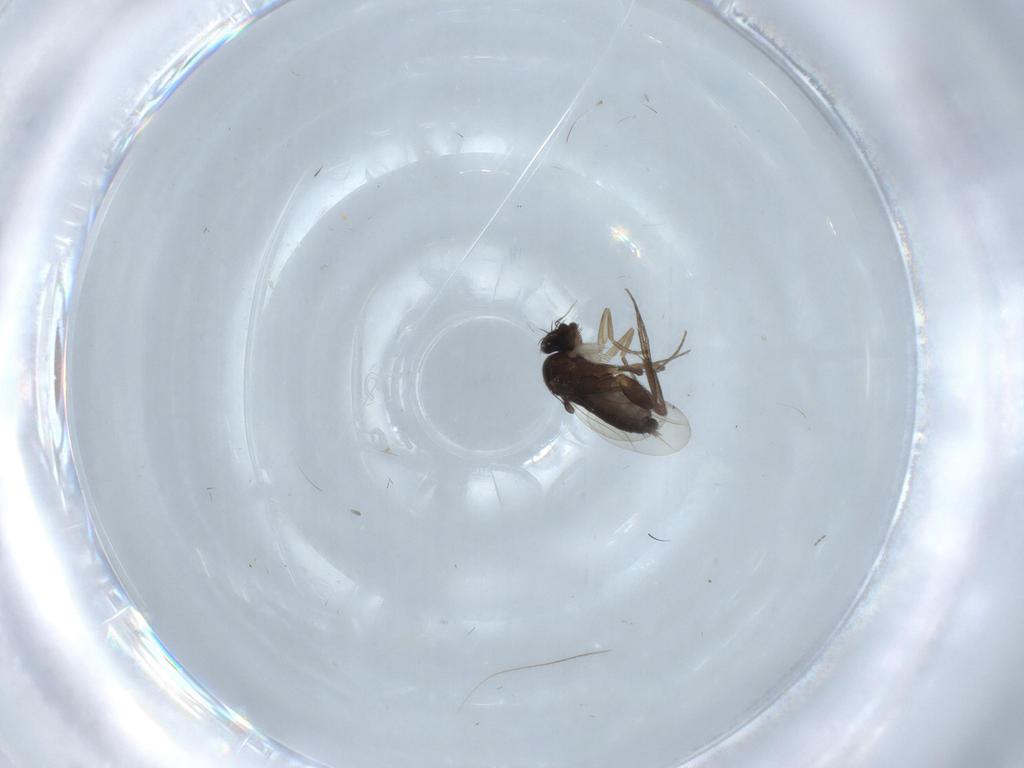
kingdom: Animalia
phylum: Arthropoda
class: Insecta
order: Diptera
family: Phoridae
